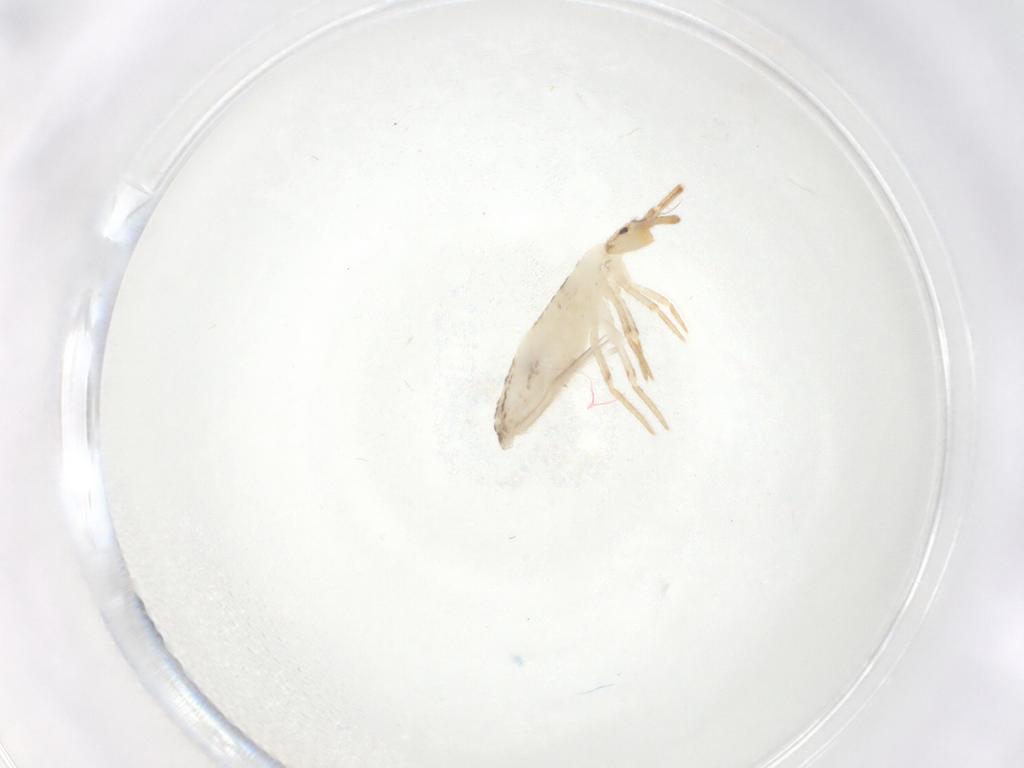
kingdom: Animalia
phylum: Arthropoda
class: Collembola
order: Entomobryomorpha
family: Entomobryidae
